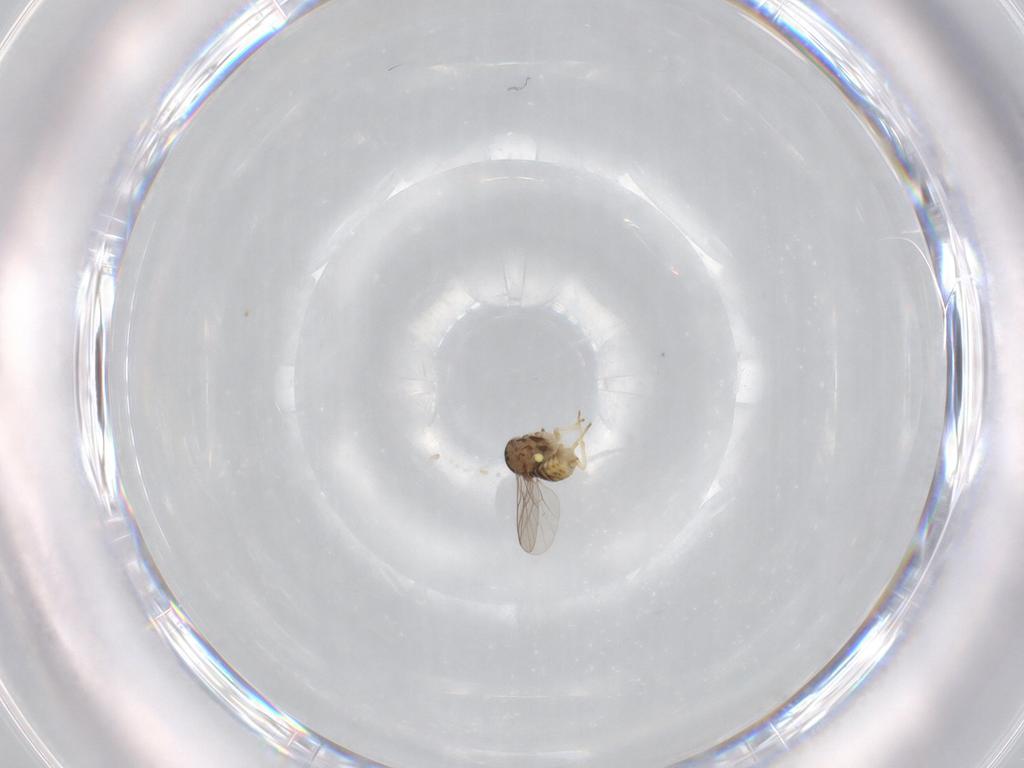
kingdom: Animalia
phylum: Arthropoda
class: Insecta
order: Diptera
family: Bombyliidae
